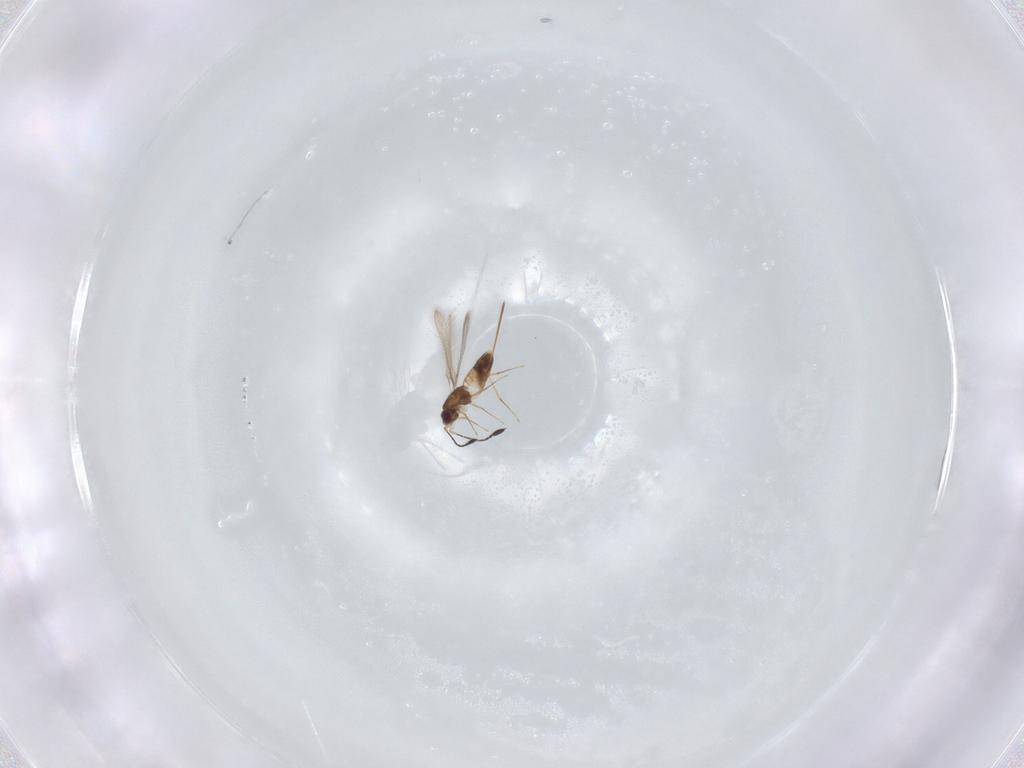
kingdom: Animalia
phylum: Arthropoda
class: Insecta
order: Hymenoptera
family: Mymaridae
